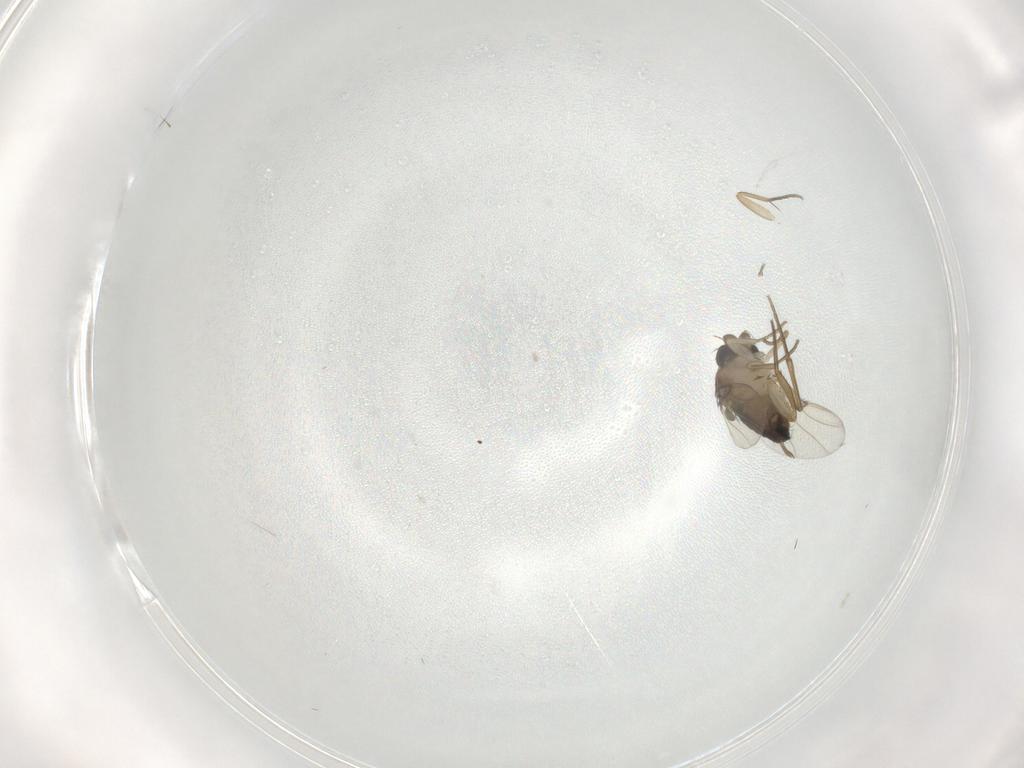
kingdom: Animalia
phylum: Arthropoda
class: Insecta
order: Diptera
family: Phoridae
